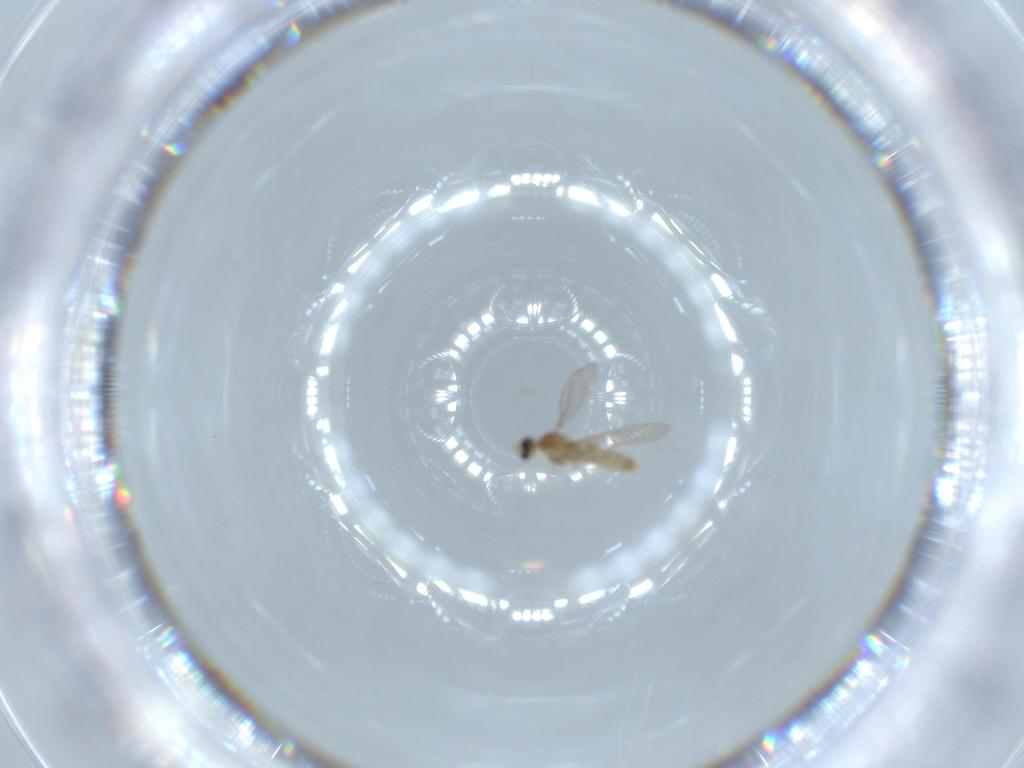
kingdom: Animalia
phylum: Arthropoda
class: Insecta
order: Diptera
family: Cecidomyiidae
